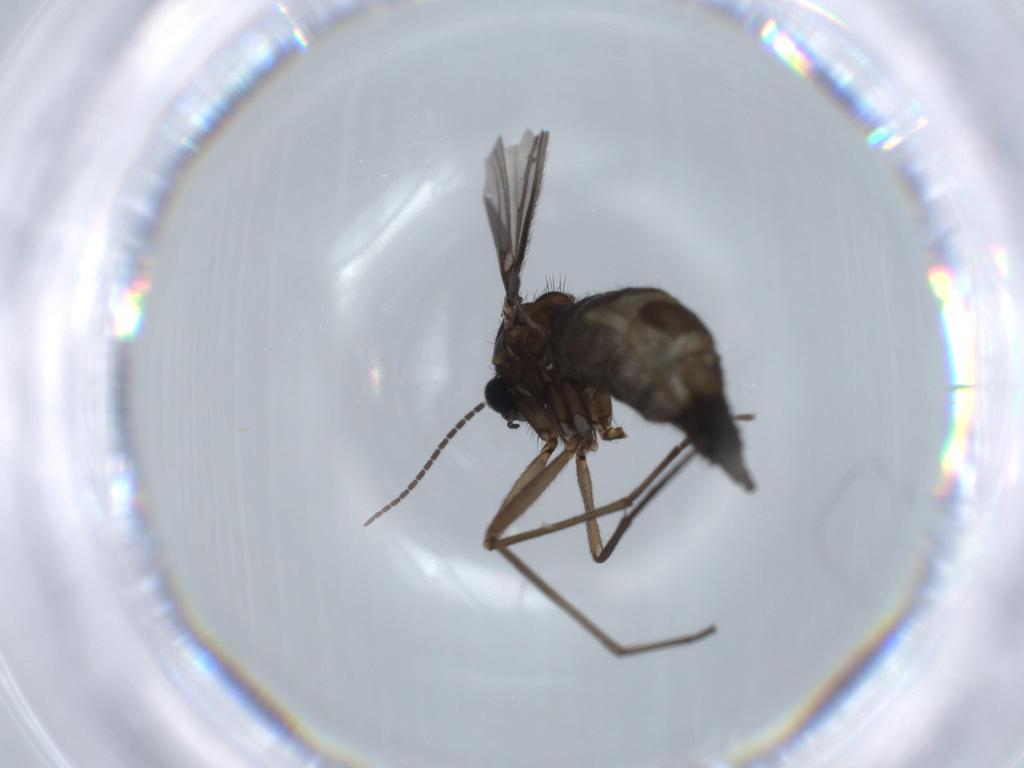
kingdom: Animalia
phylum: Arthropoda
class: Insecta
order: Diptera
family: Sciaridae
